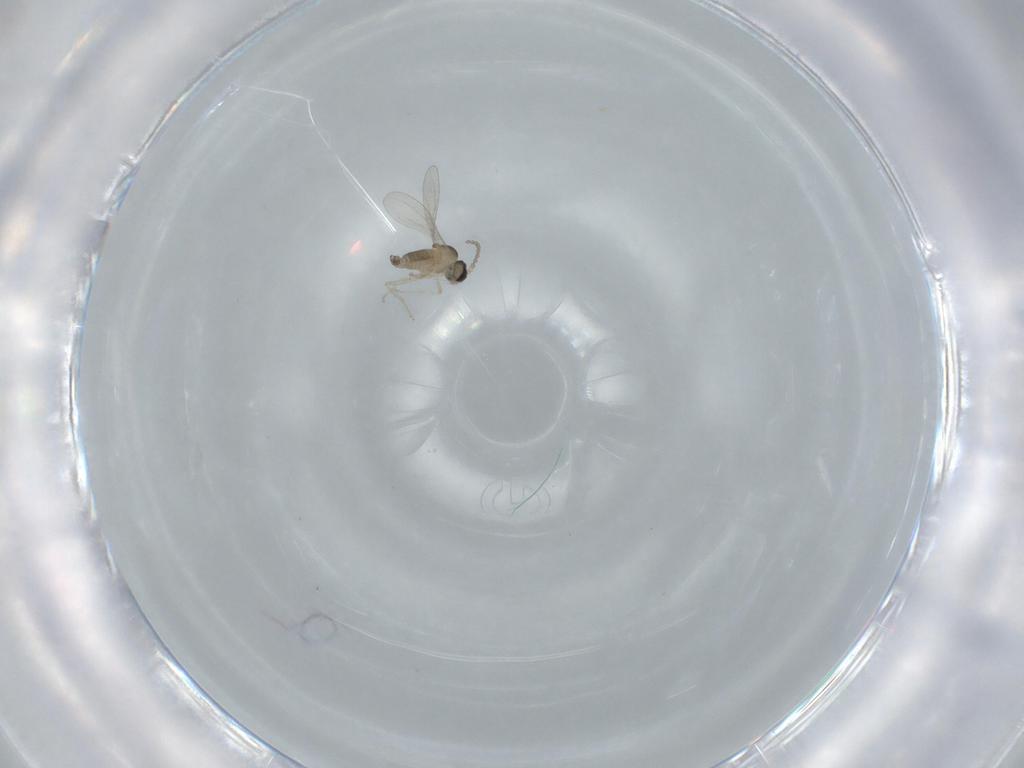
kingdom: Animalia
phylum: Arthropoda
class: Insecta
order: Diptera
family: Cecidomyiidae
